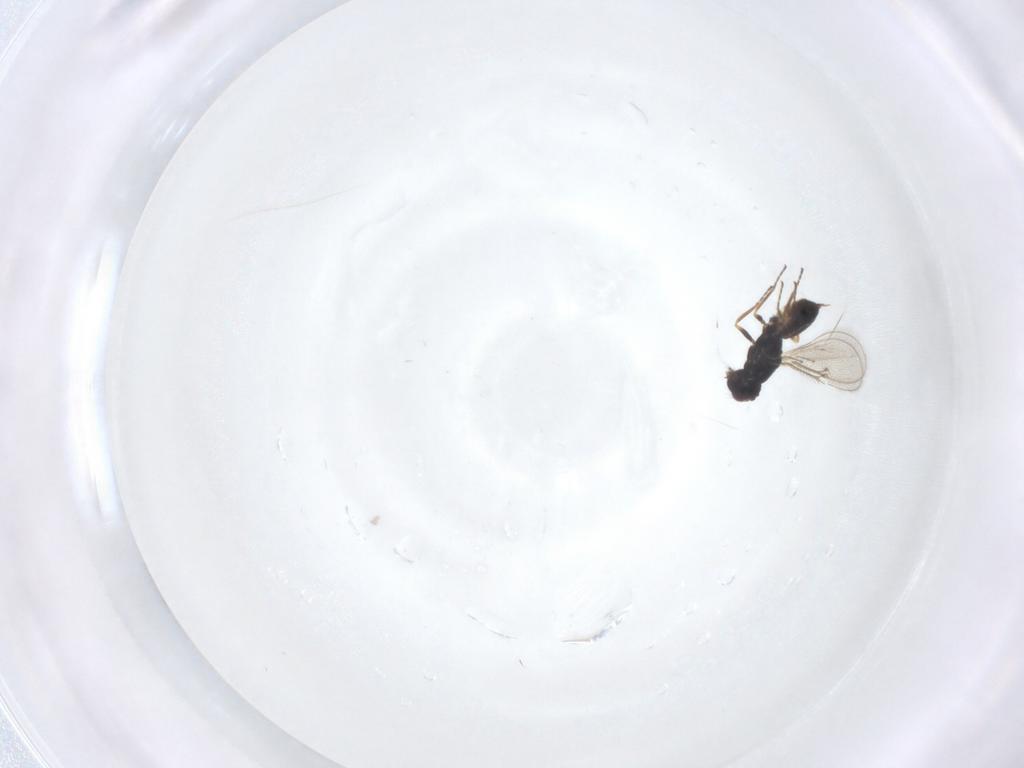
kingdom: Animalia
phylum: Arthropoda
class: Insecta
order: Hymenoptera
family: Eulophidae
